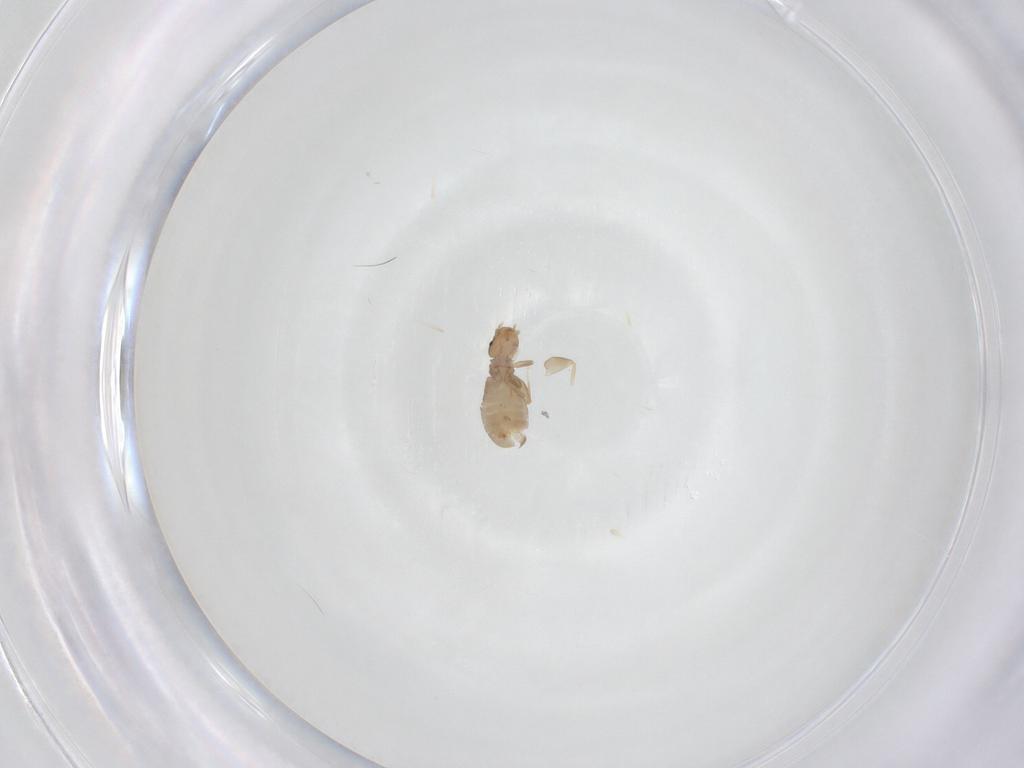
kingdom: Animalia
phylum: Arthropoda
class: Insecta
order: Psocodea
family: Liposcelididae
